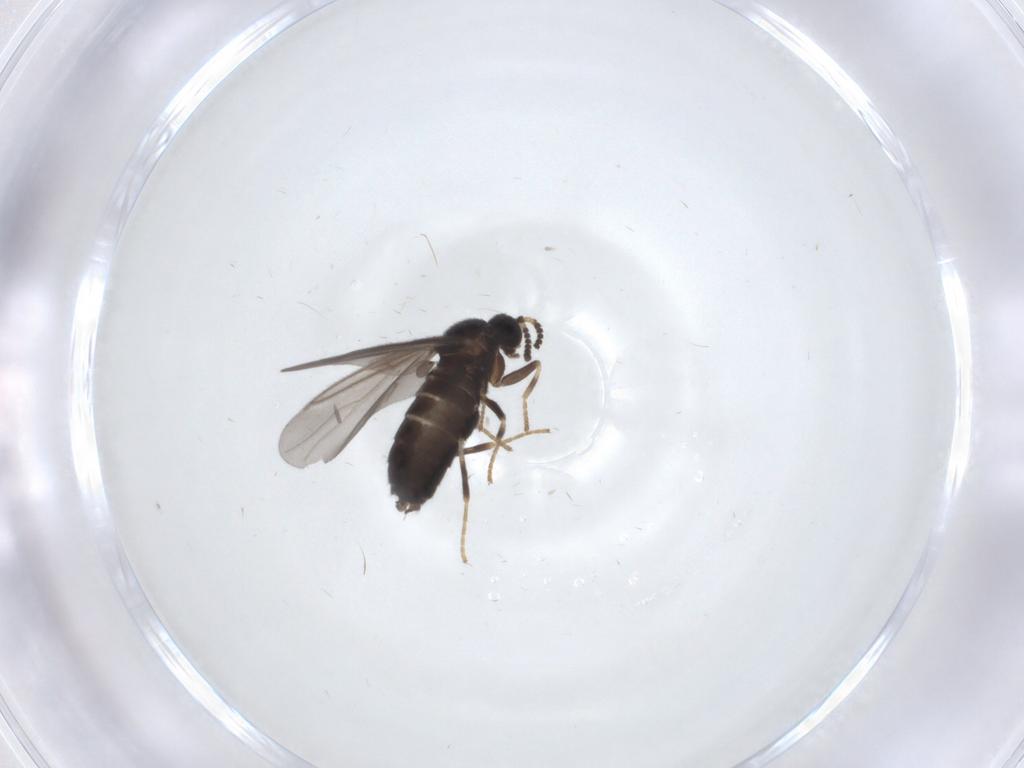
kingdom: Animalia
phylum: Arthropoda
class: Insecta
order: Diptera
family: Scatopsidae
